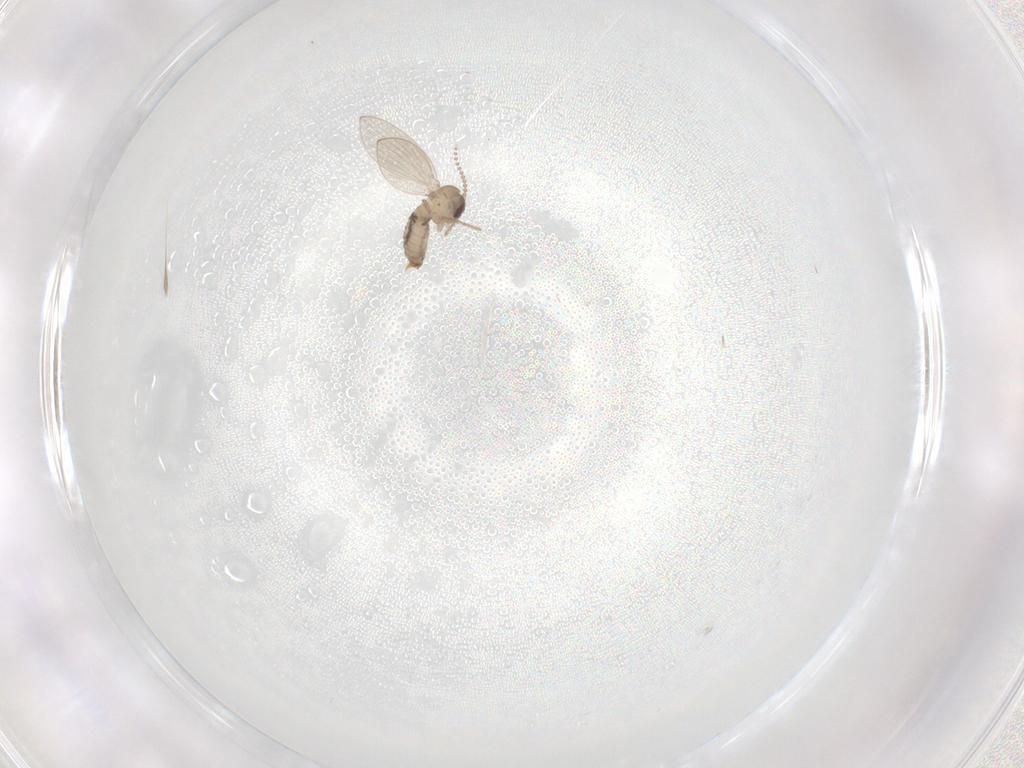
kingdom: Animalia
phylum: Arthropoda
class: Insecta
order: Diptera
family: Psychodidae
